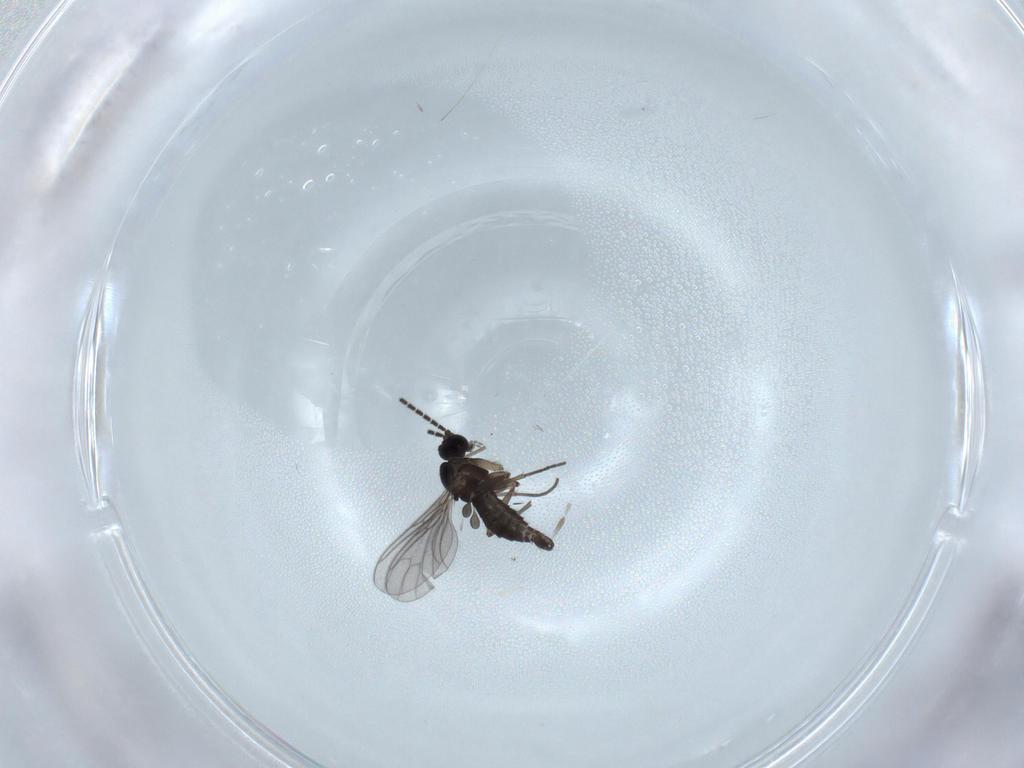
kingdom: Animalia
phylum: Arthropoda
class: Insecta
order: Diptera
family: Sciaridae
